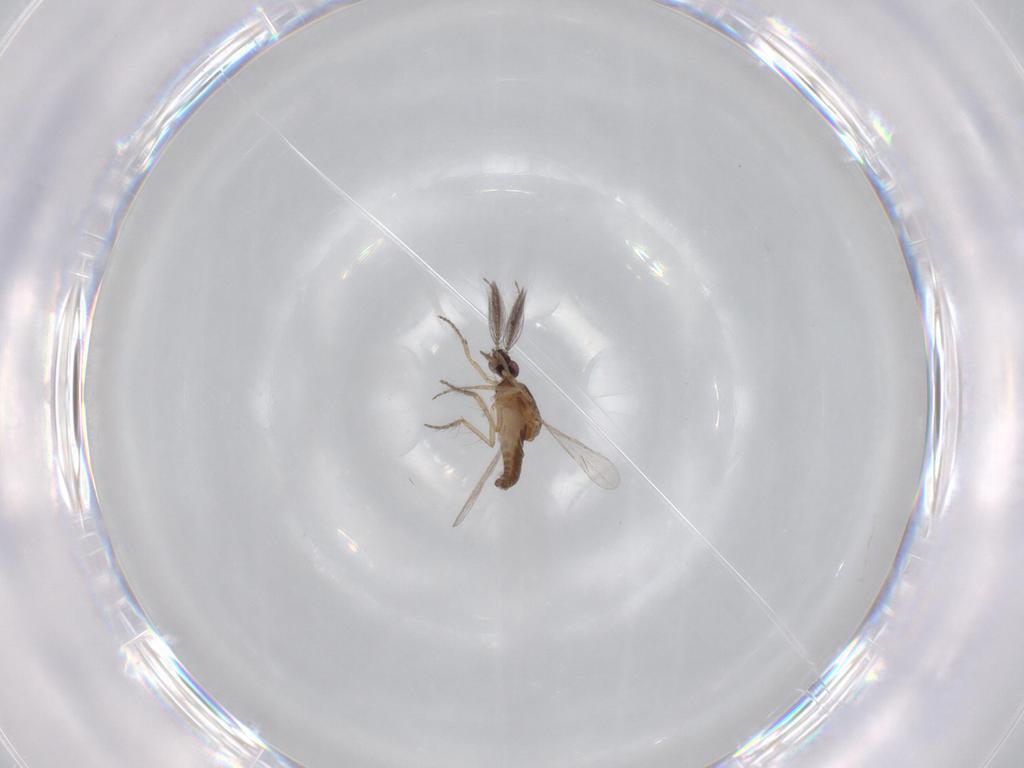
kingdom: Animalia
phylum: Arthropoda
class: Insecta
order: Diptera
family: Ceratopogonidae
